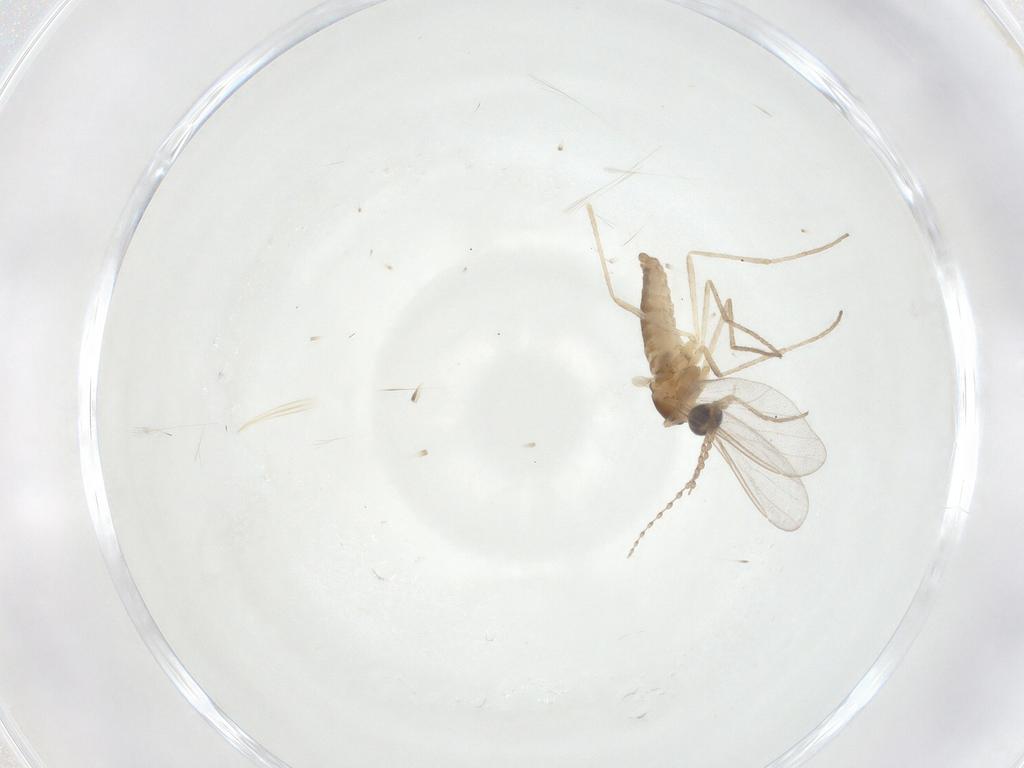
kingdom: Animalia
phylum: Arthropoda
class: Insecta
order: Diptera
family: Cecidomyiidae
